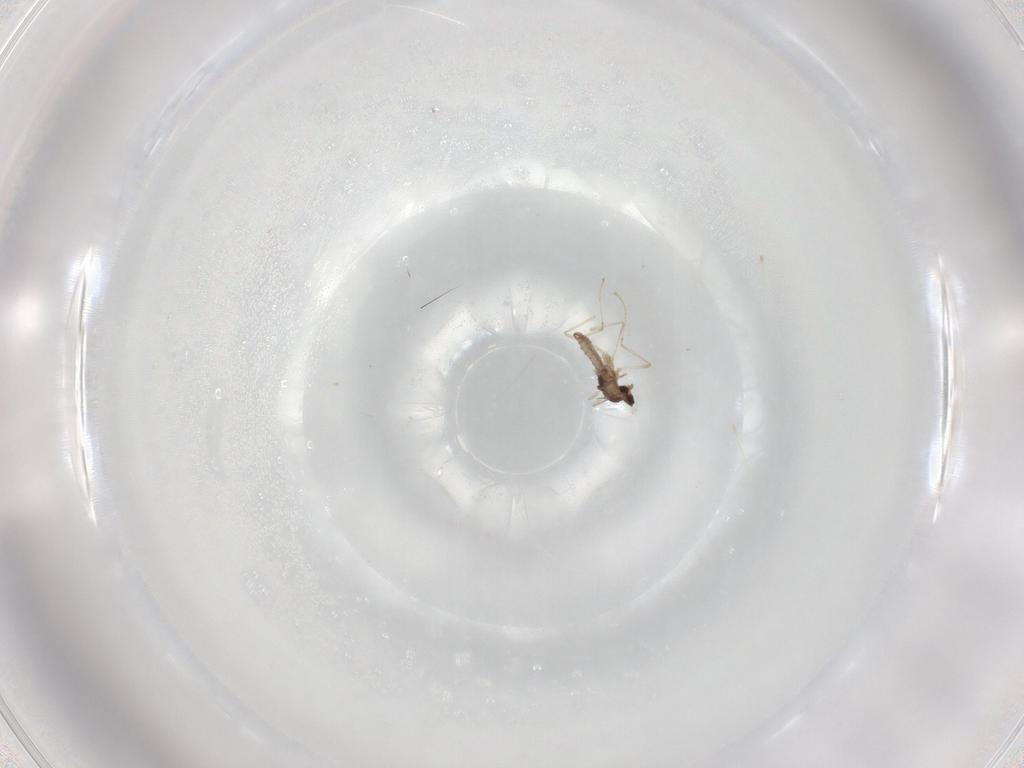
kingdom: Animalia
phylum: Arthropoda
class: Insecta
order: Diptera
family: Cecidomyiidae
